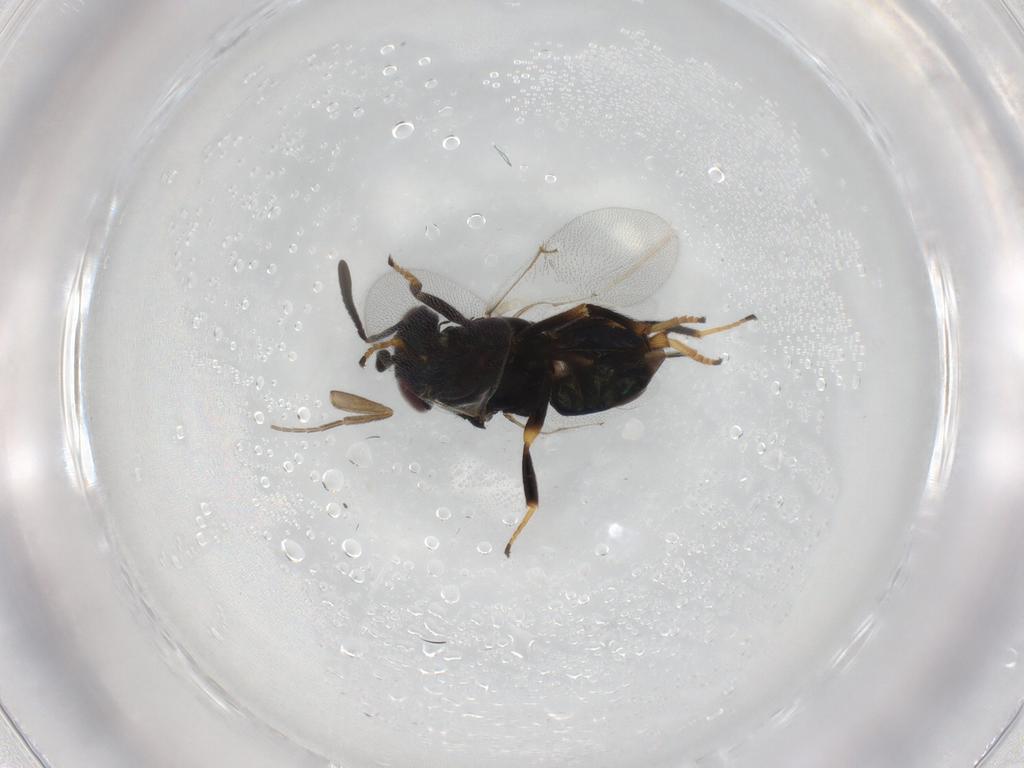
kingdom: Animalia
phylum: Arthropoda
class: Insecta
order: Hymenoptera
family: Encyrtidae
